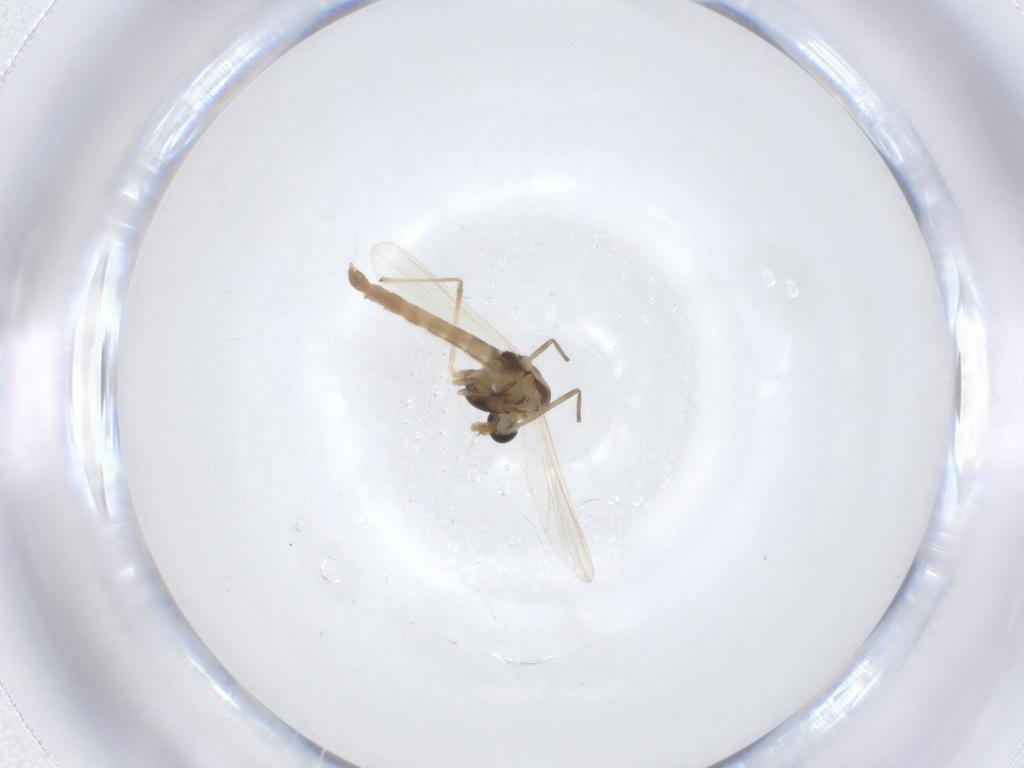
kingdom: Animalia
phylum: Arthropoda
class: Insecta
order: Diptera
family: Chironomidae
